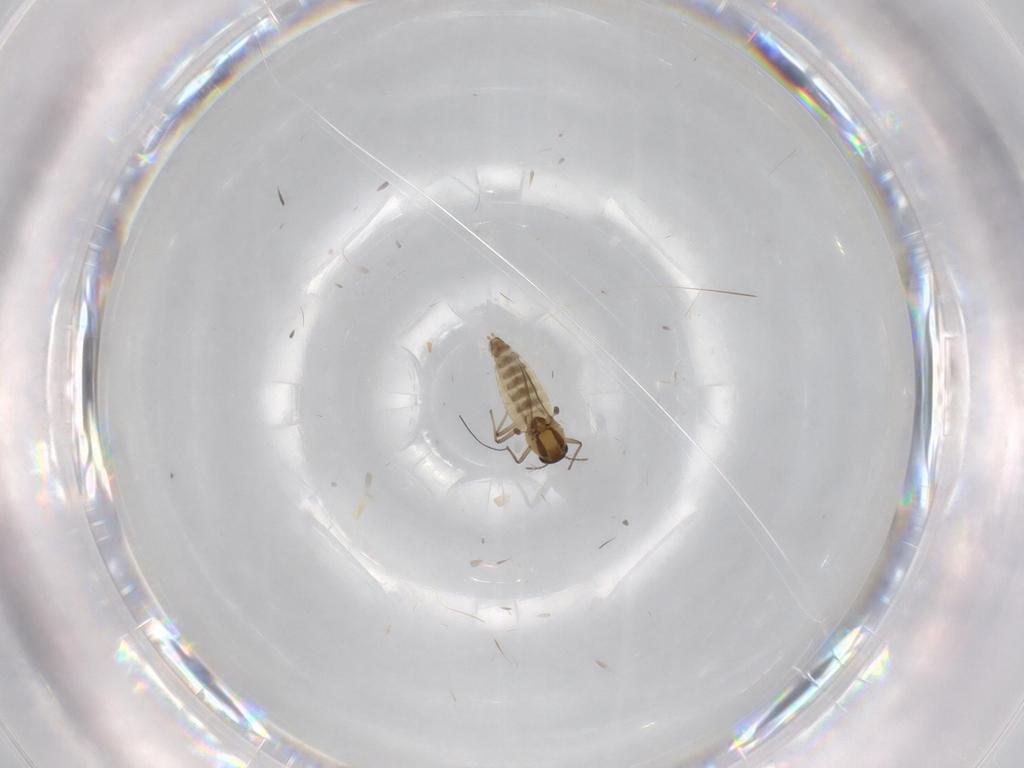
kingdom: Animalia
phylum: Arthropoda
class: Insecta
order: Diptera
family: Chironomidae
